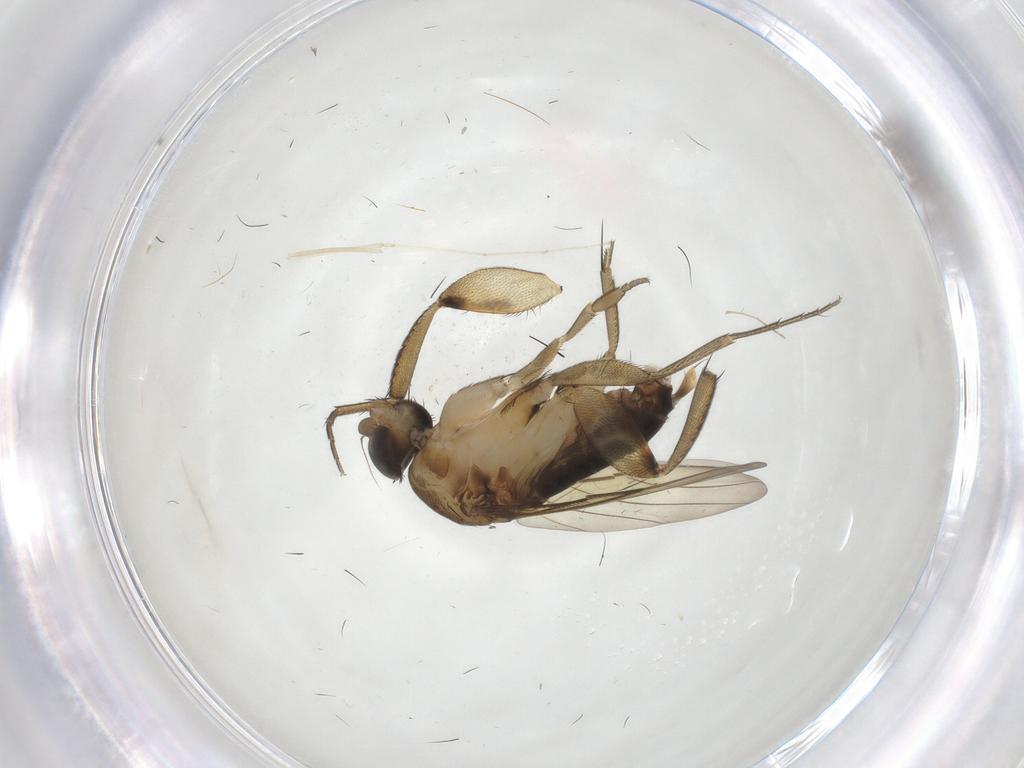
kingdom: Animalia
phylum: Arthropoda
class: Insecta
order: Diptera
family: Phoridae
